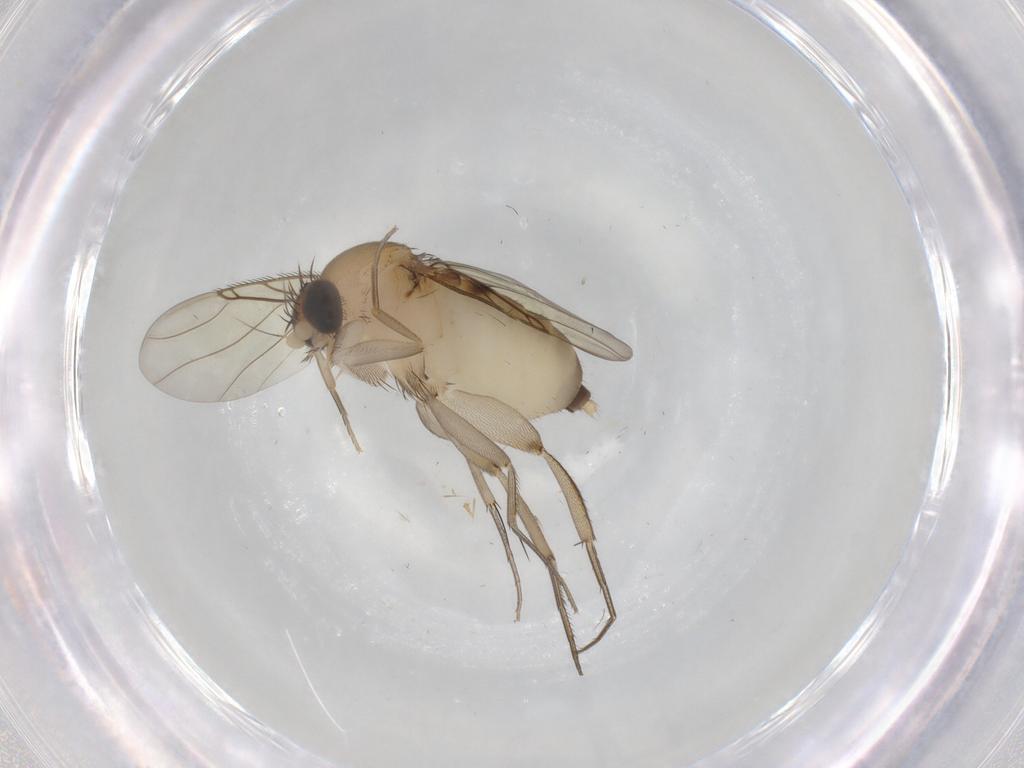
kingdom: Animalia
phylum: Arthropoda
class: Insecta
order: Diptera
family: Phoridae
